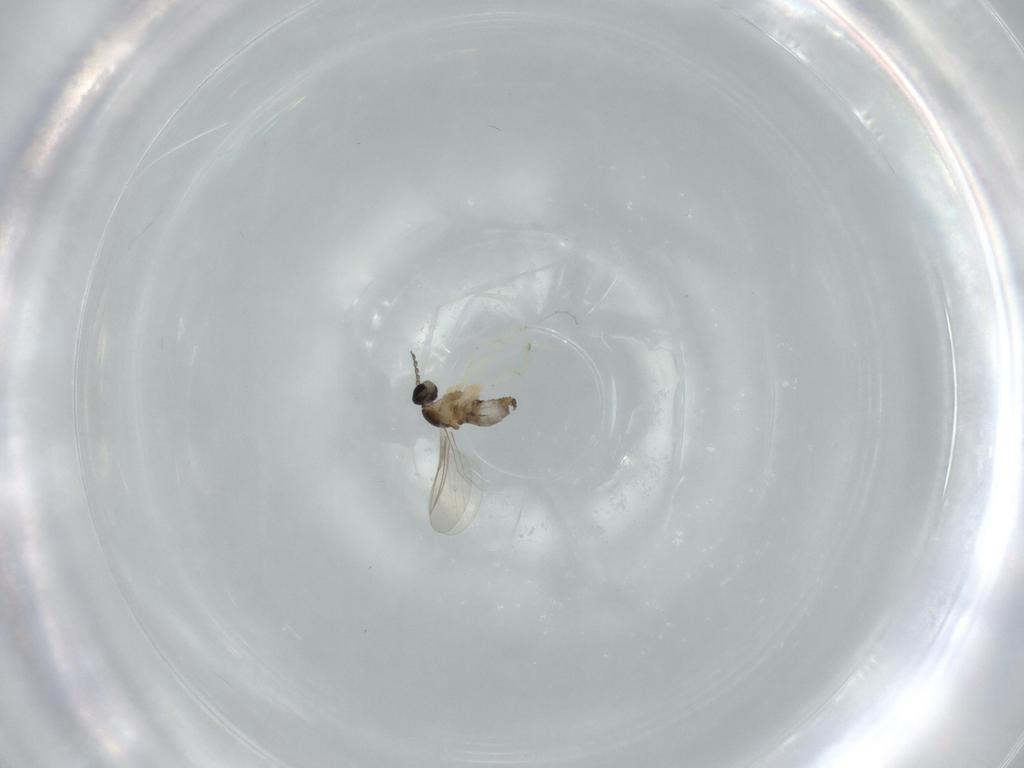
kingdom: Animalia
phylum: Arthropoda
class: Insecta
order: Diptera
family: Cecidomyiidae
